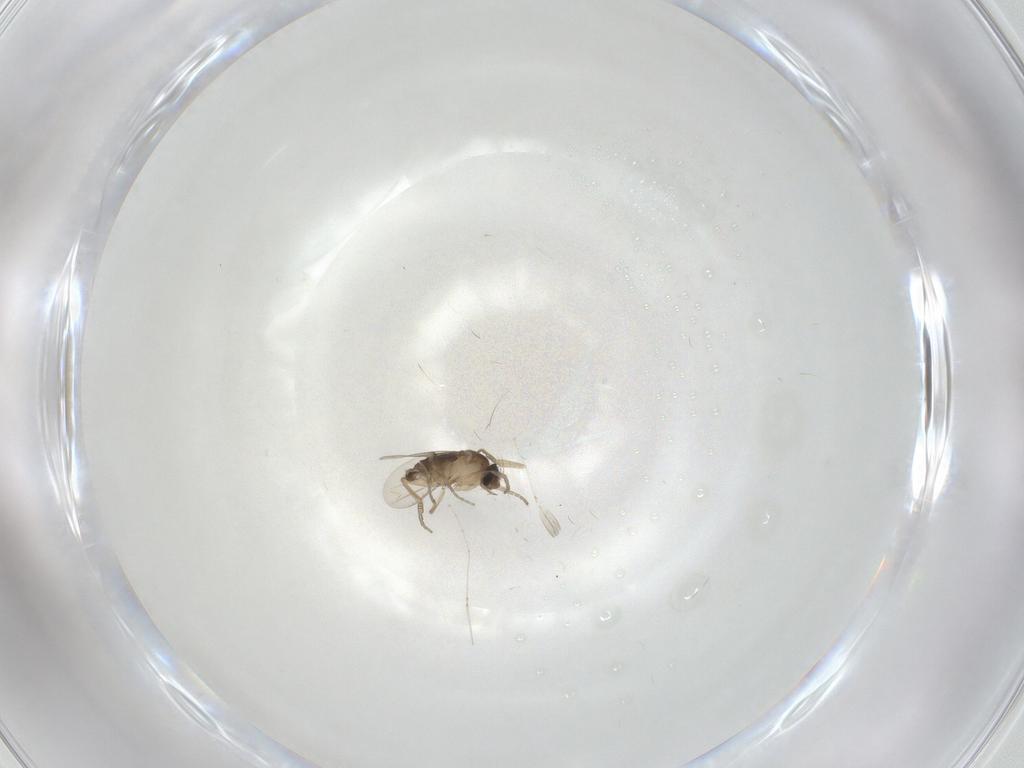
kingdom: Animalia
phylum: Arthropoda
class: Insecta
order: Diptera
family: Phoridae
